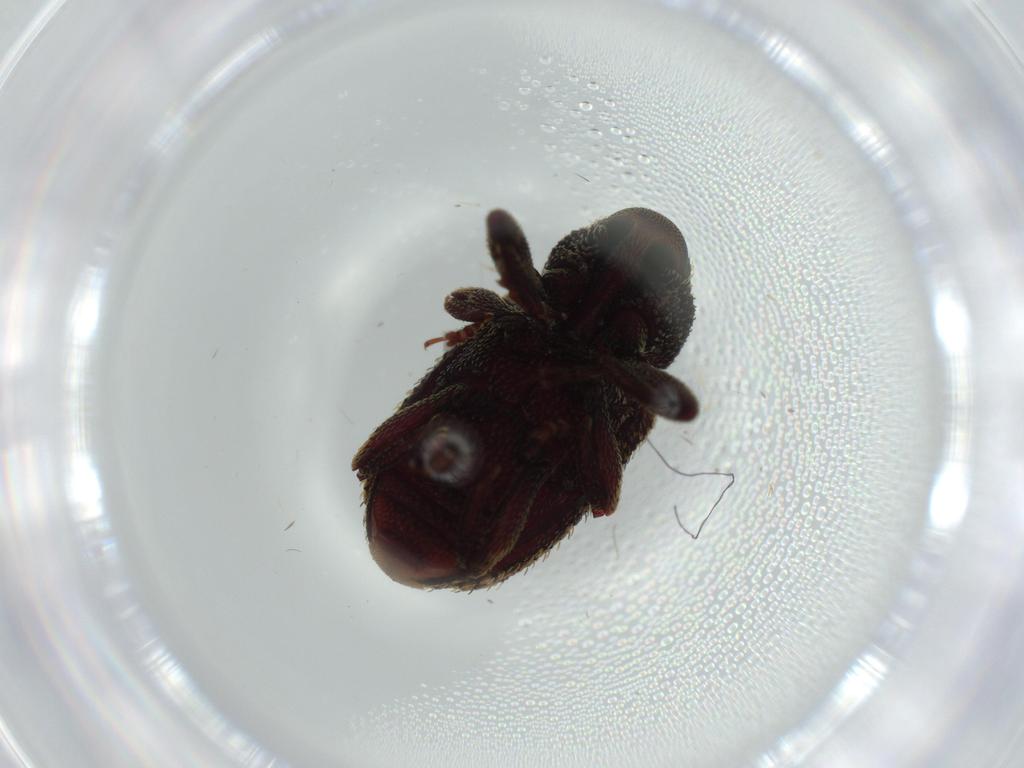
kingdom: Animalia
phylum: Arthropoda
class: Insecta
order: Coleoptera
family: Curculionidae
